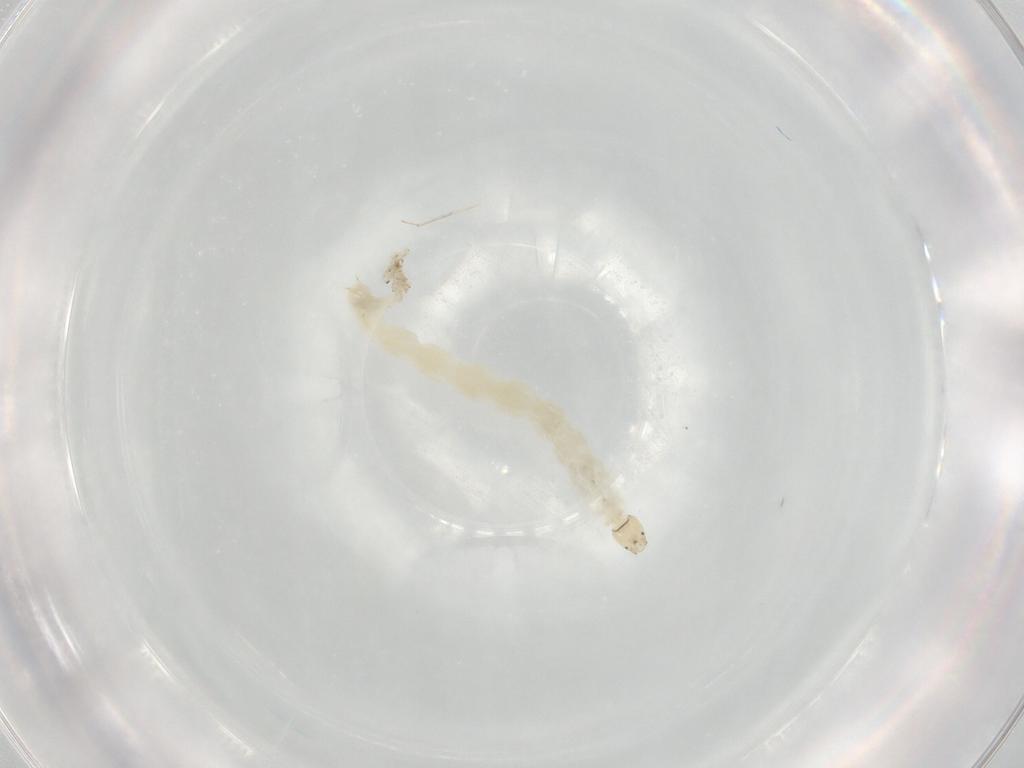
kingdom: Animalia
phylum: Arthropoda
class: Insecta
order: Diptera
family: Chironomidae
